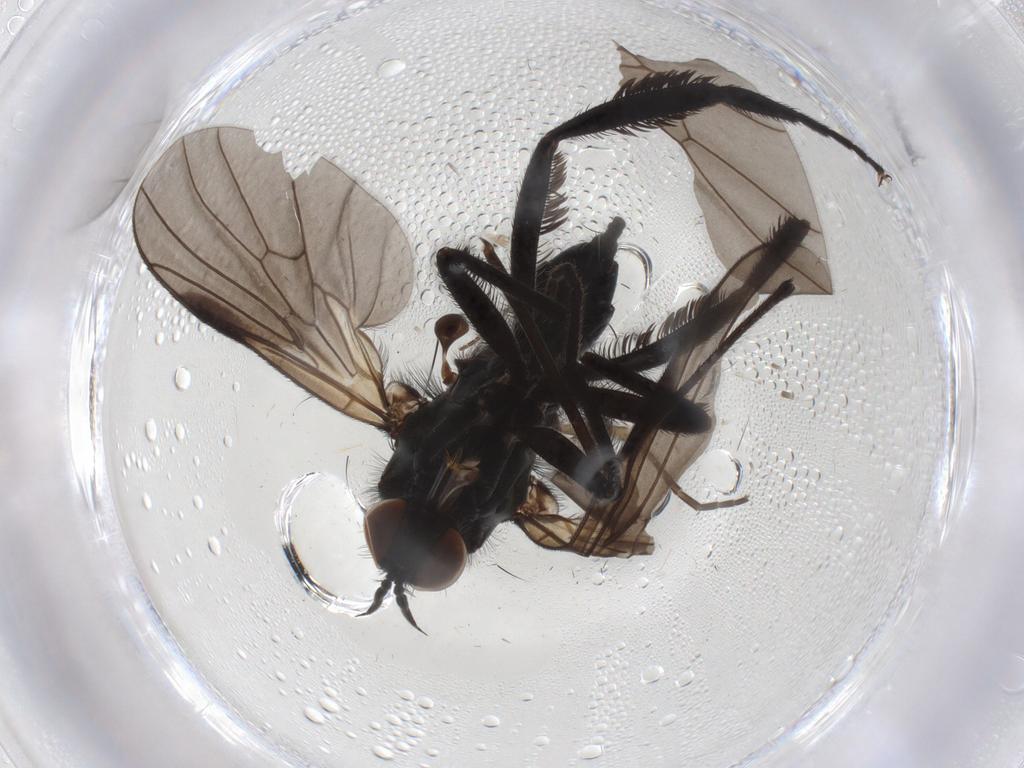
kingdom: Animalia
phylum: Arthropoda
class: Insecta
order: Diptera
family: Empididae
